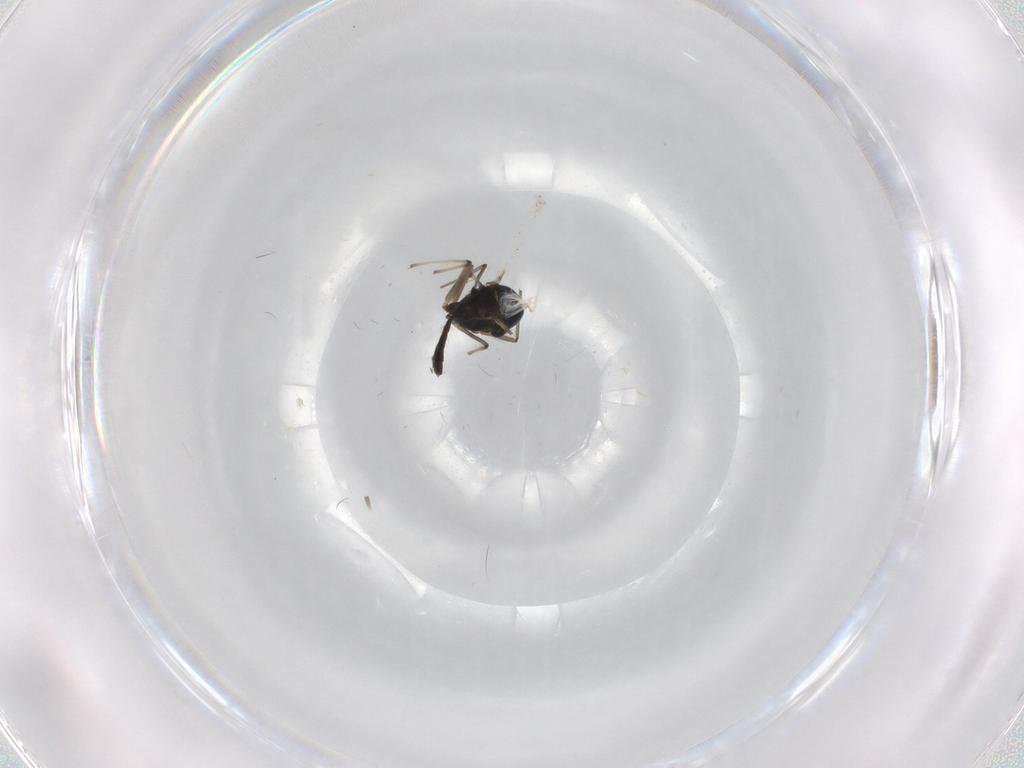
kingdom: Animalia
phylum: Arthropoda
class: Insecta
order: Diptera
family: Chironomidae
